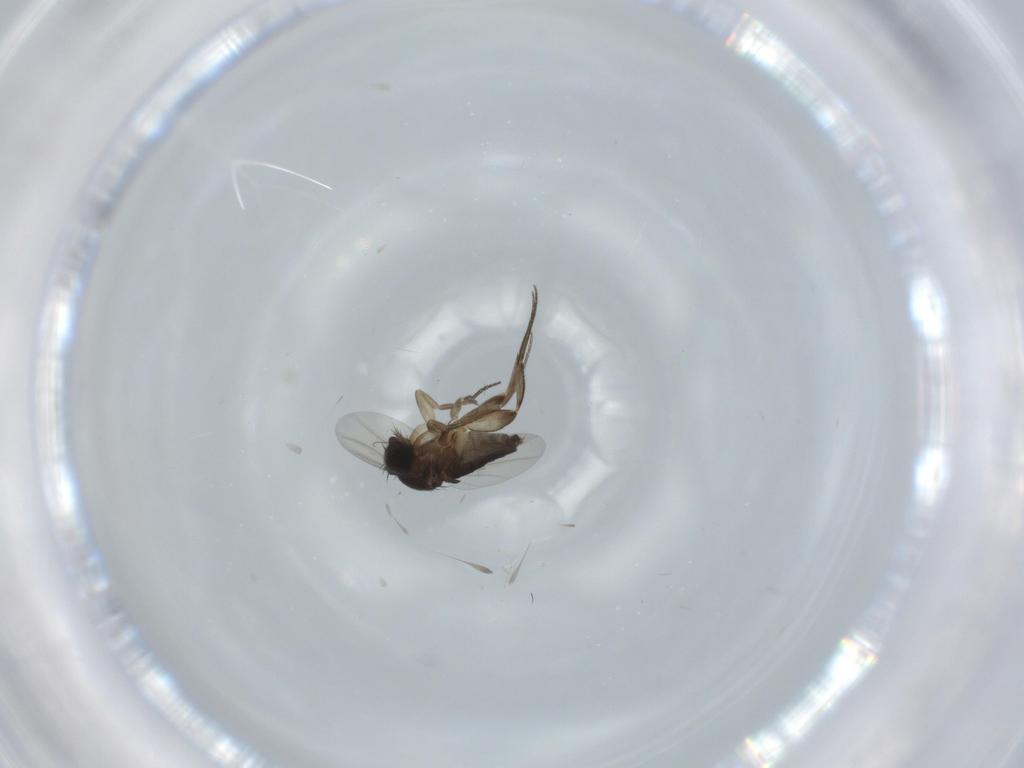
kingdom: Animalia
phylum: Arthropoda
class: Insecta
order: Diptera
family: Phoridae
